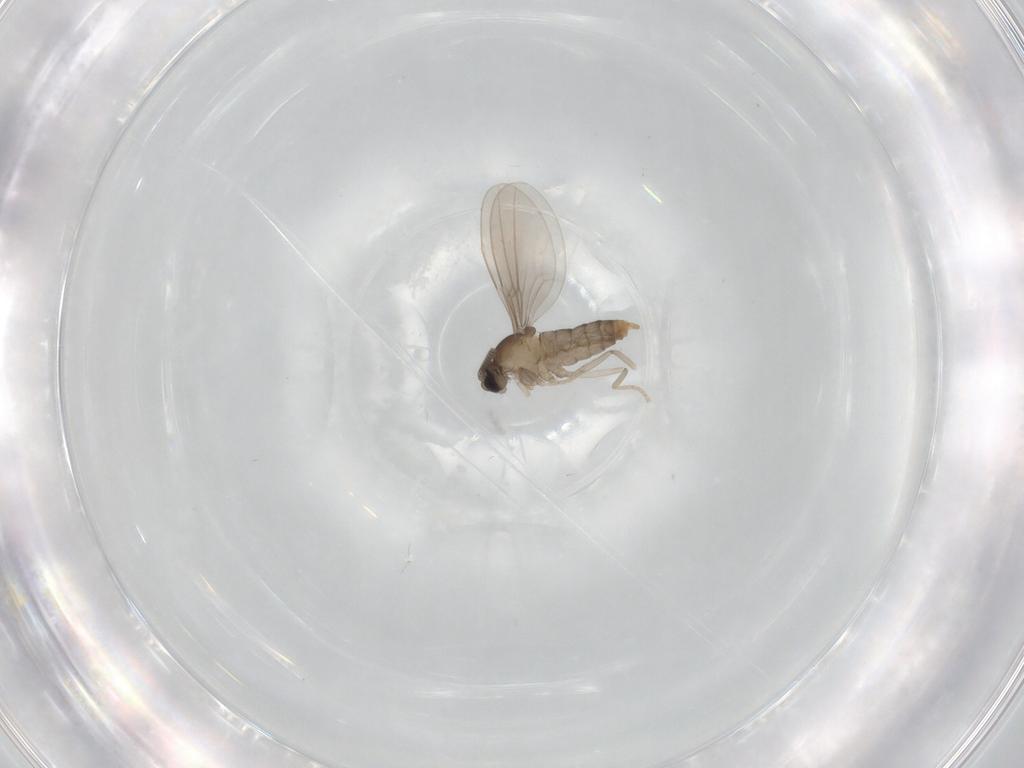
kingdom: Animalia
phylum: Arthropoda
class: Insecta
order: Diptera
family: Cecidomyiidae
